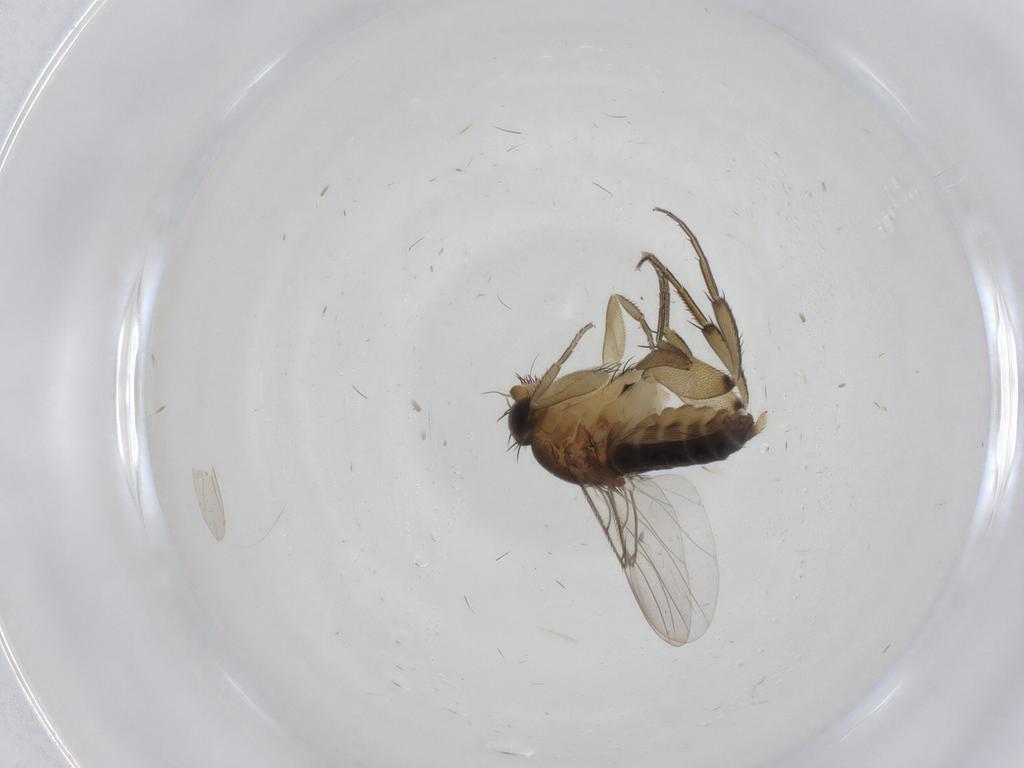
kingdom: Animalia
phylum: Arthropoda
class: Insecta
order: Diptera
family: Phoridae
